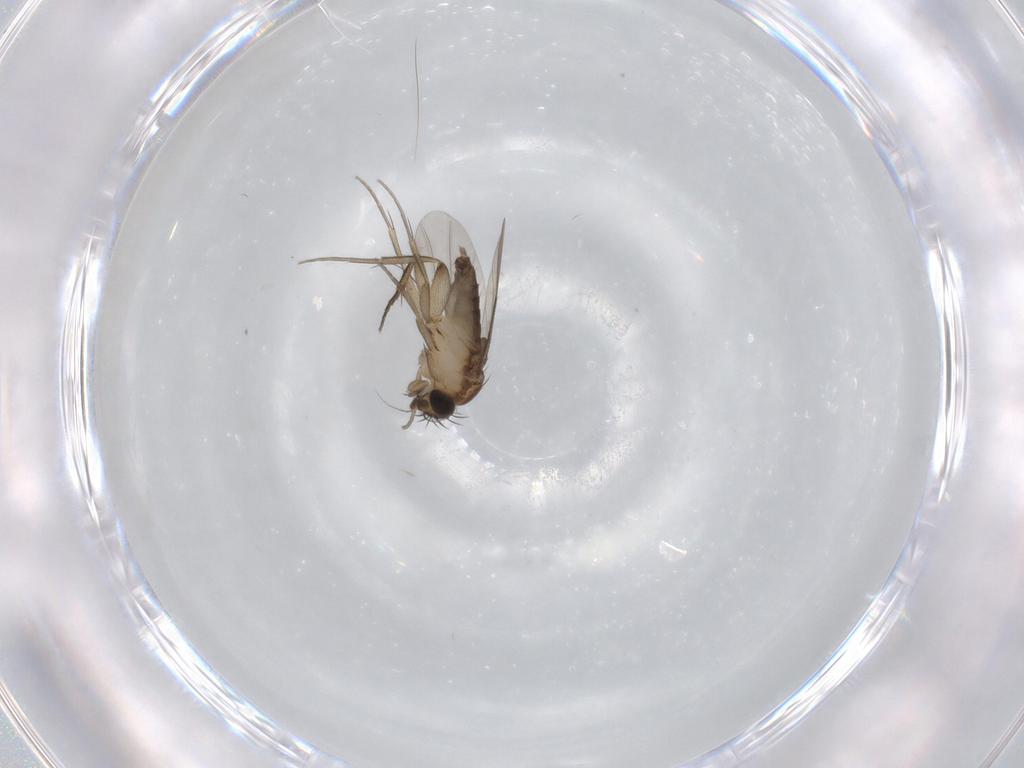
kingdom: Animalia
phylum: Arthropoda
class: Insecta
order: Diptera
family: Phoridae
